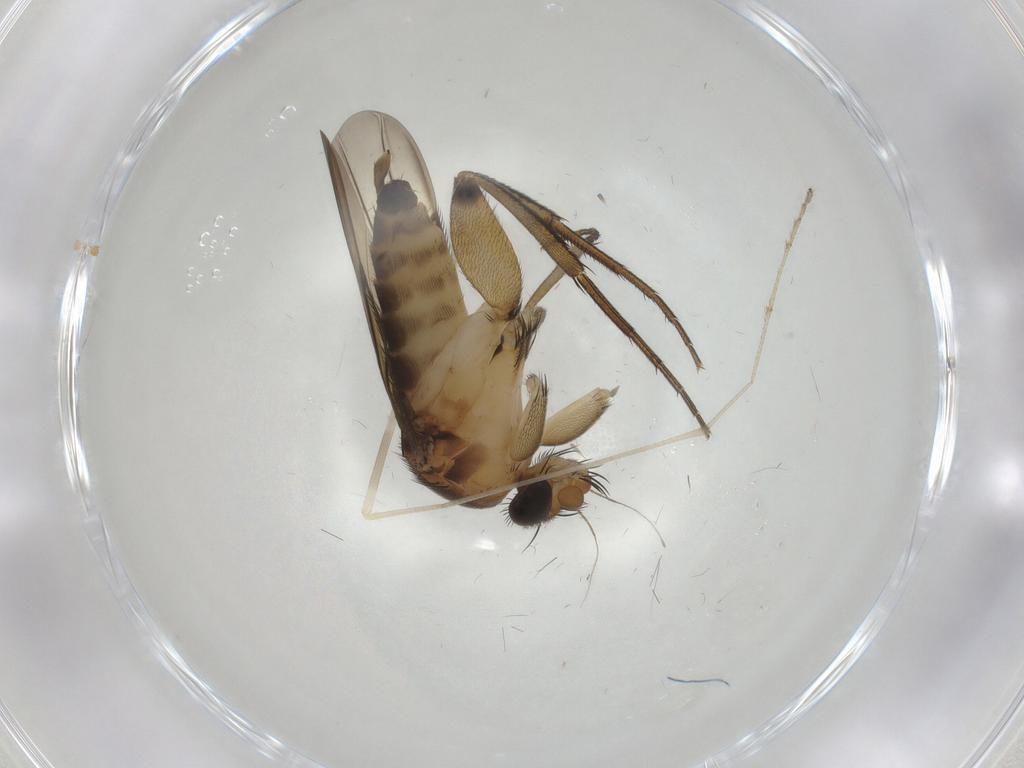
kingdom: Animalia
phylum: Arthropoda
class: Insecta
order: Diptera
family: Phoridae
